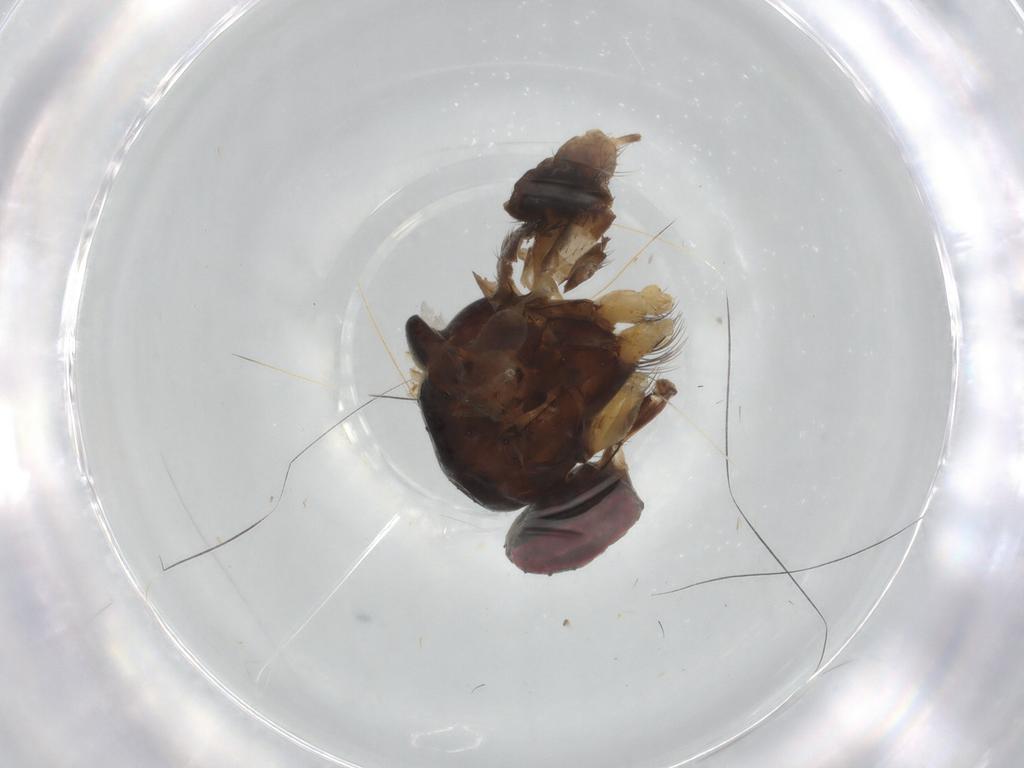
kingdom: Animalia
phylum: Arthropoda
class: Insecta
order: Diptera
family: Muscidae
